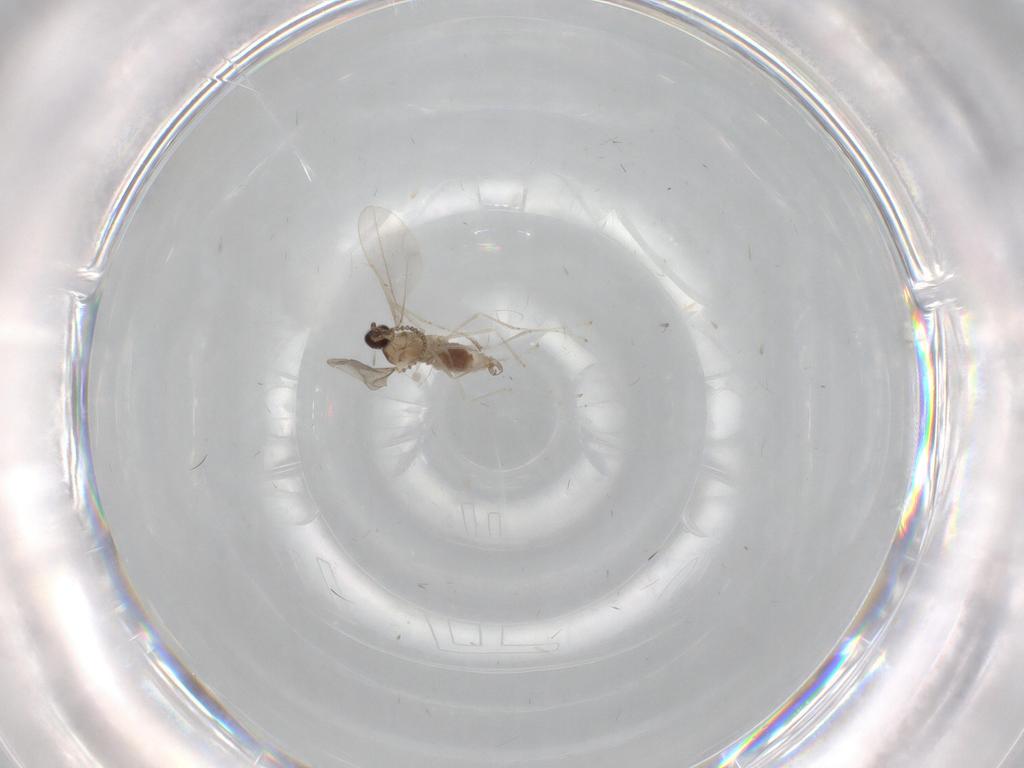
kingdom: Animalia
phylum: Arthropoda
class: Insecta
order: Diptera
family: Cecidomyiidae
